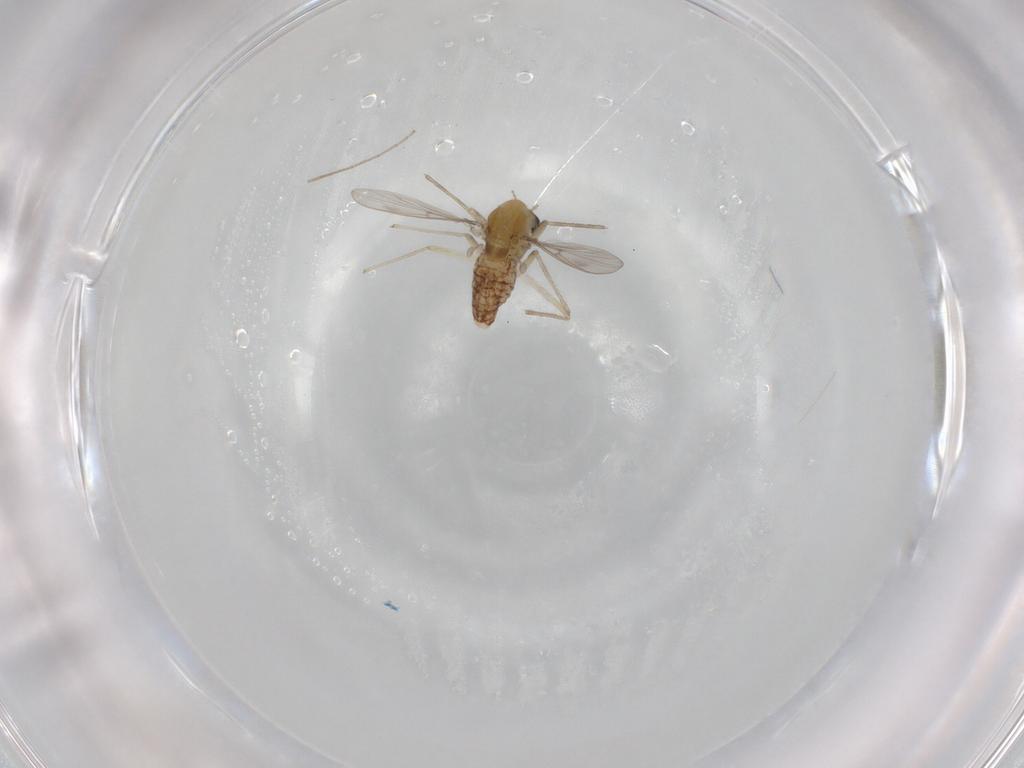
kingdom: Animalia
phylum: Arthropoda
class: Insecta
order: Diptera
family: Chironomidae
